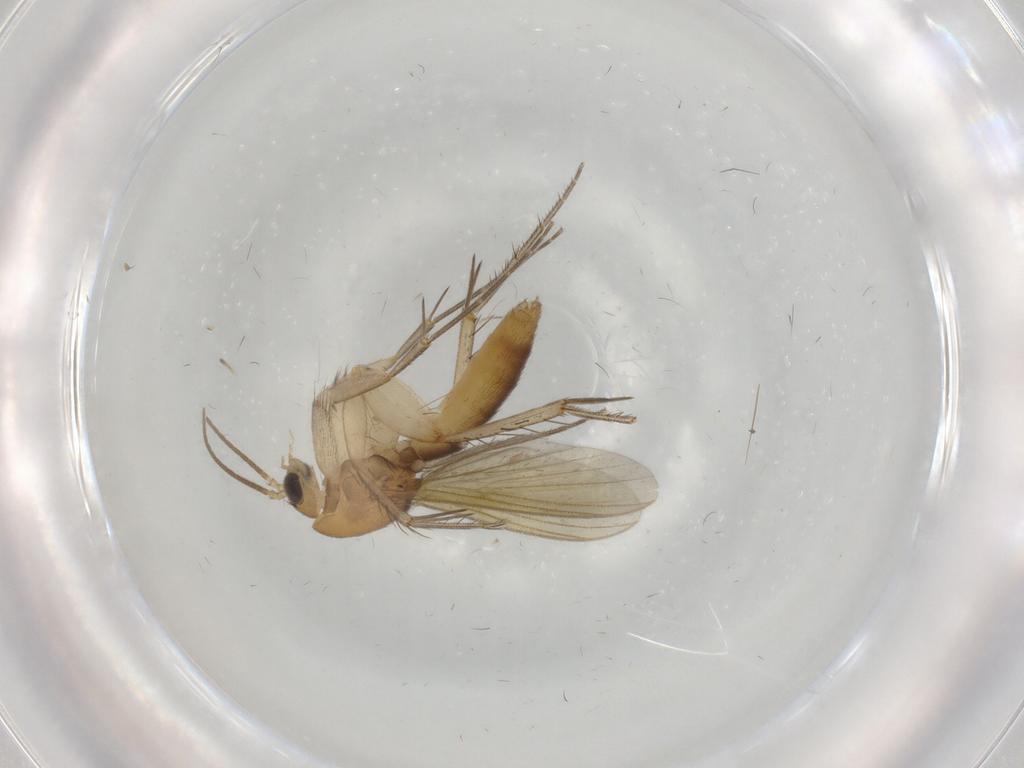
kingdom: Animalia
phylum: Arthropoda
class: Insecta
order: Diptera
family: Mycetophilidae
